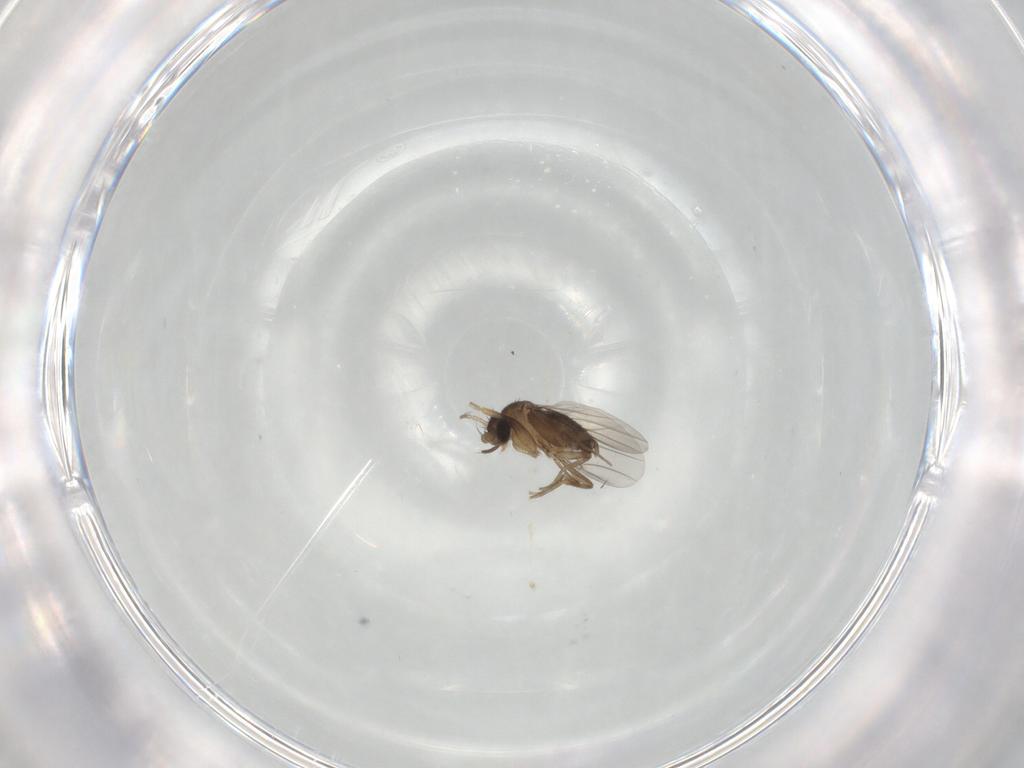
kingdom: Animalia
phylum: Arthropoda
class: Insecta
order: Diptera
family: Phoridae
